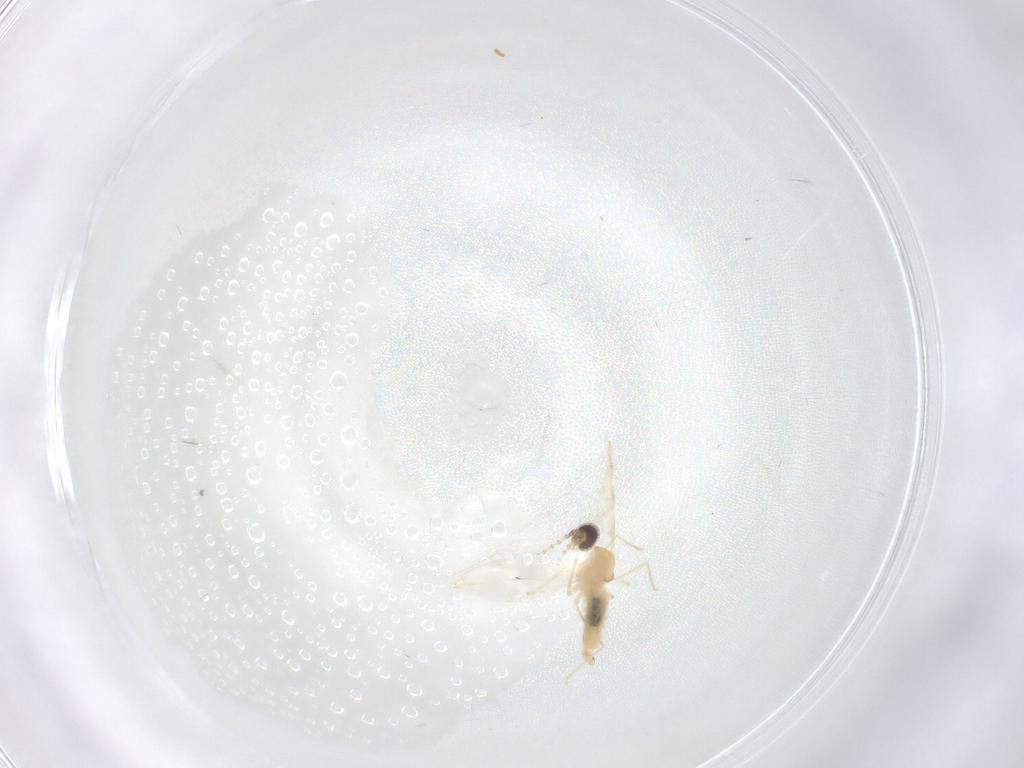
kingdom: Animalia
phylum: Arthropoda
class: Insecta
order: Diptera
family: Cecidomyiidae
